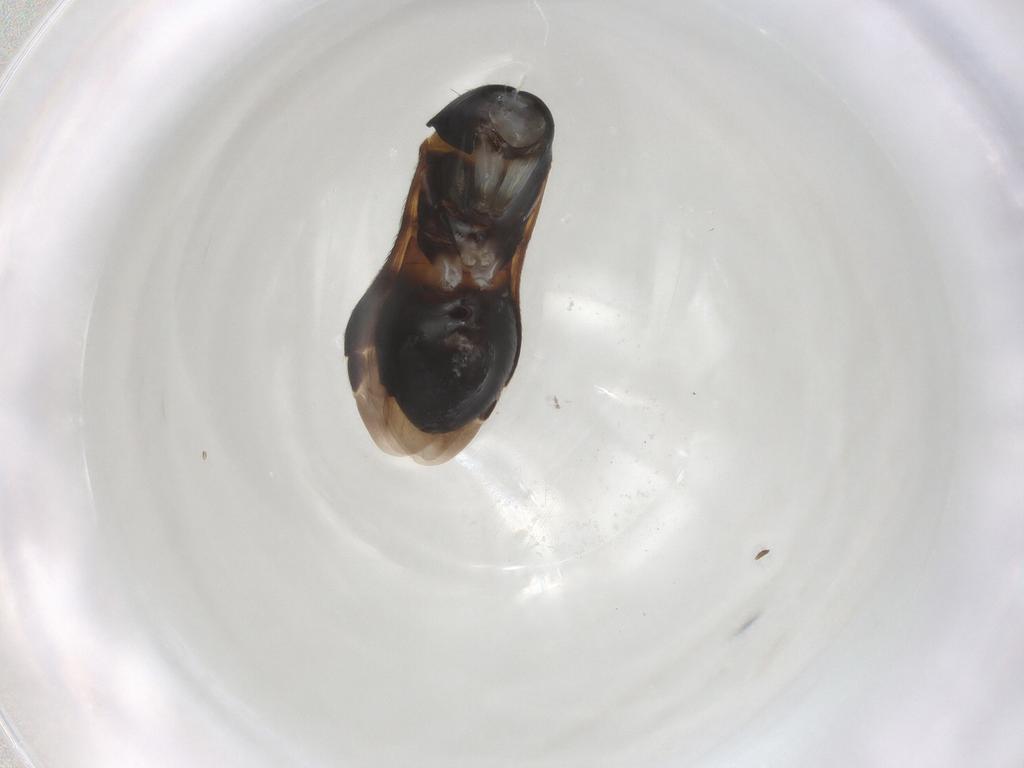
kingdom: Animalia
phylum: Arthropoda
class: Insecta
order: Hemiptera
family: Miridae
